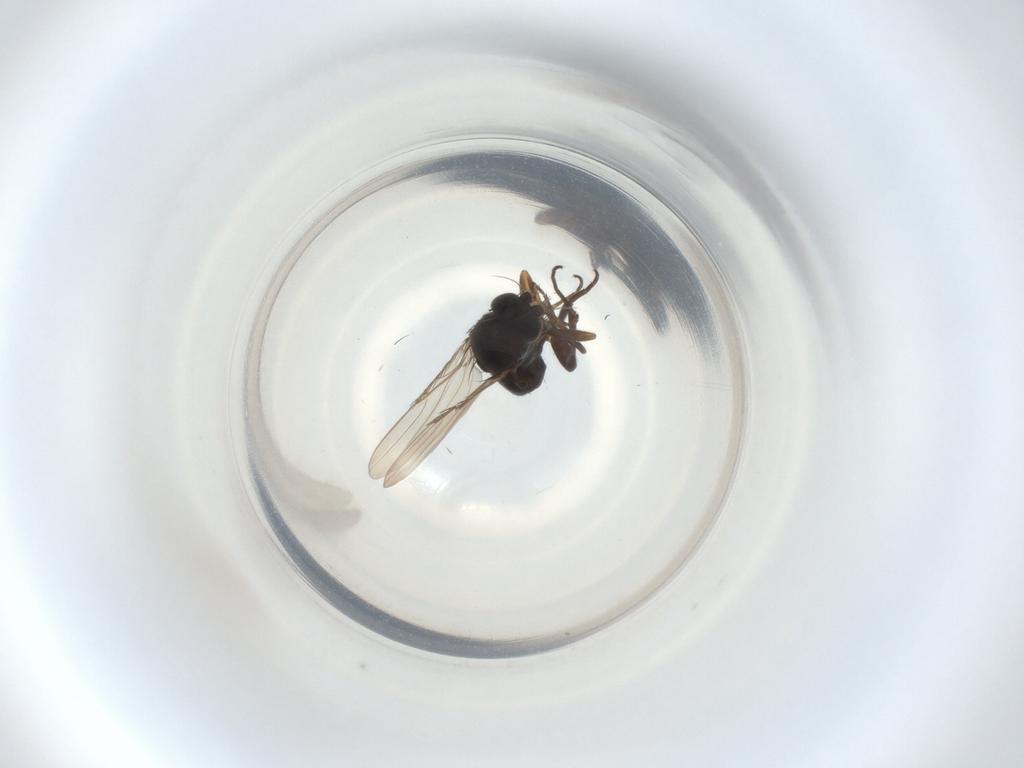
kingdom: Animalia
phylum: Arthropoda
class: Insecta
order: Diptera
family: Phoridae
